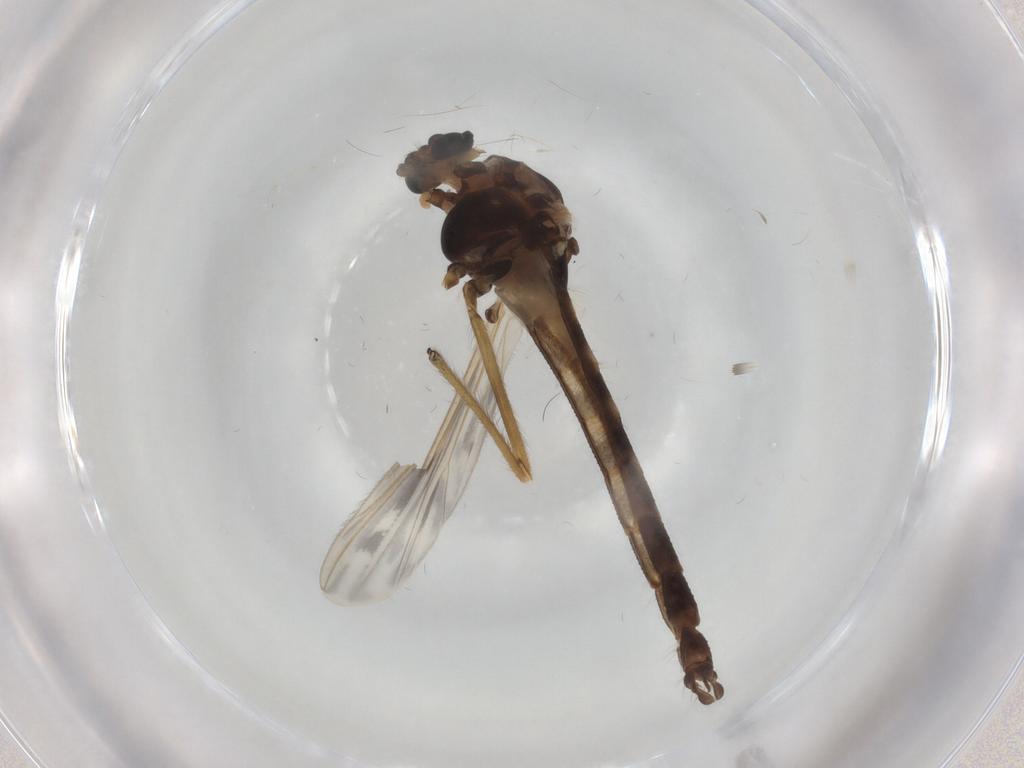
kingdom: Animalia
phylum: Arthropoda
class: Insecta
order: Diptera
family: Chironomidae
